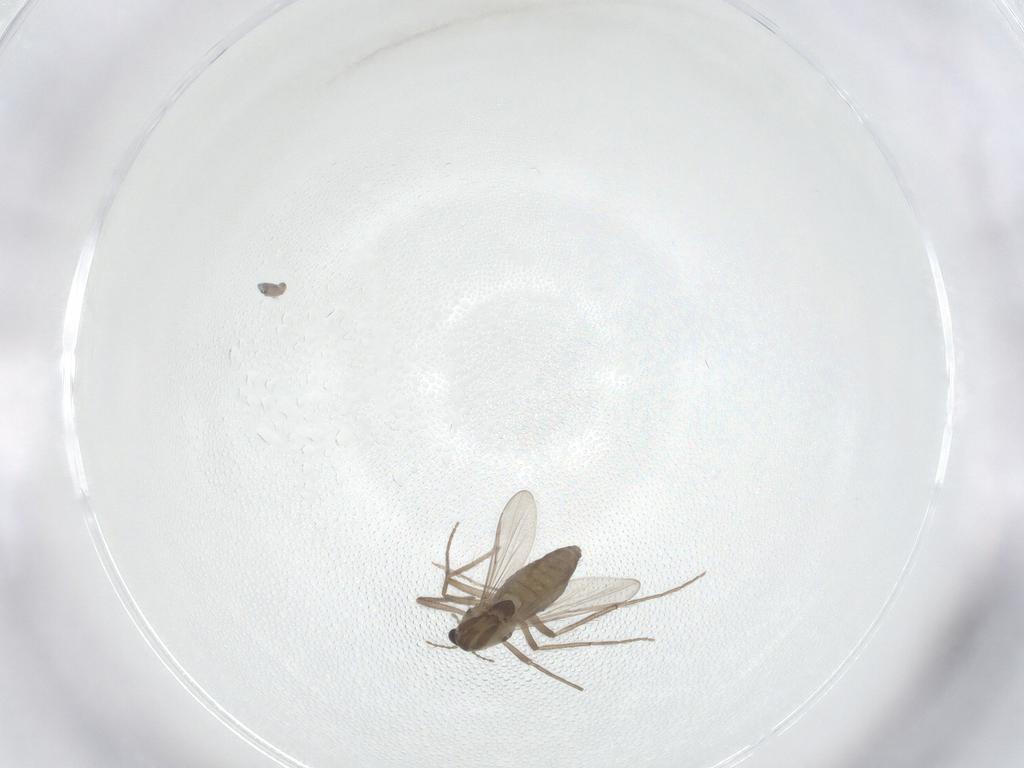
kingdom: Animalia
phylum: Arthropoda
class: Insecta
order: Diptera
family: Chironomidae
